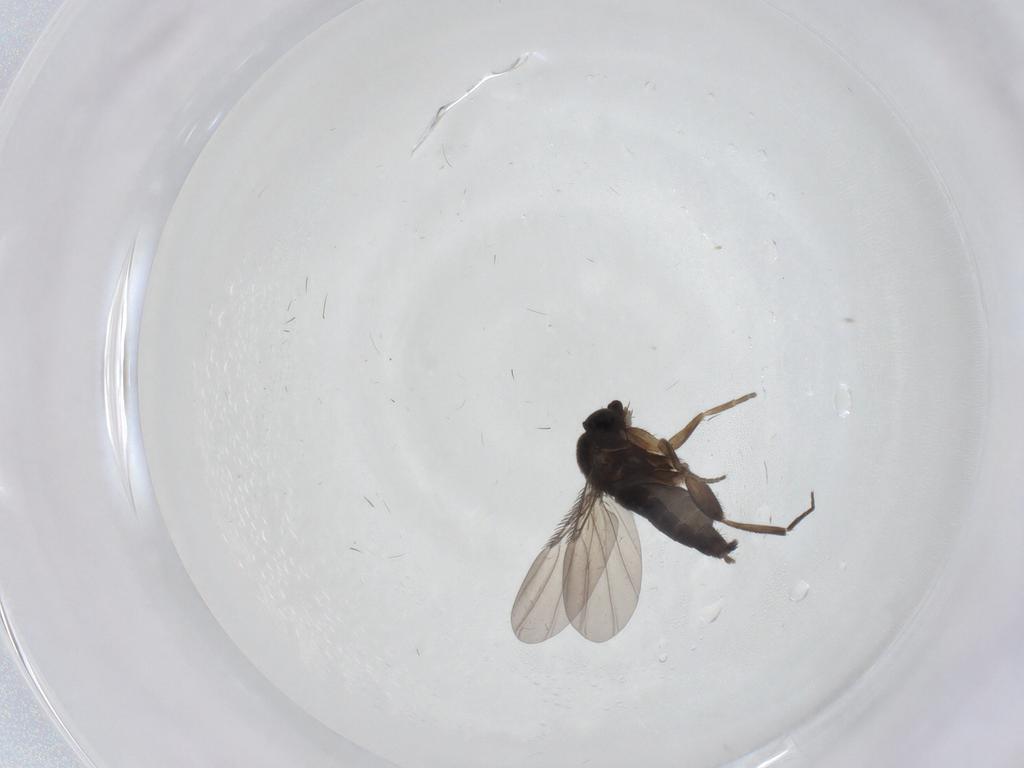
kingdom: Animalia
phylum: Arthropoda
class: Insecta
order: Diptera
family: Phoridae
